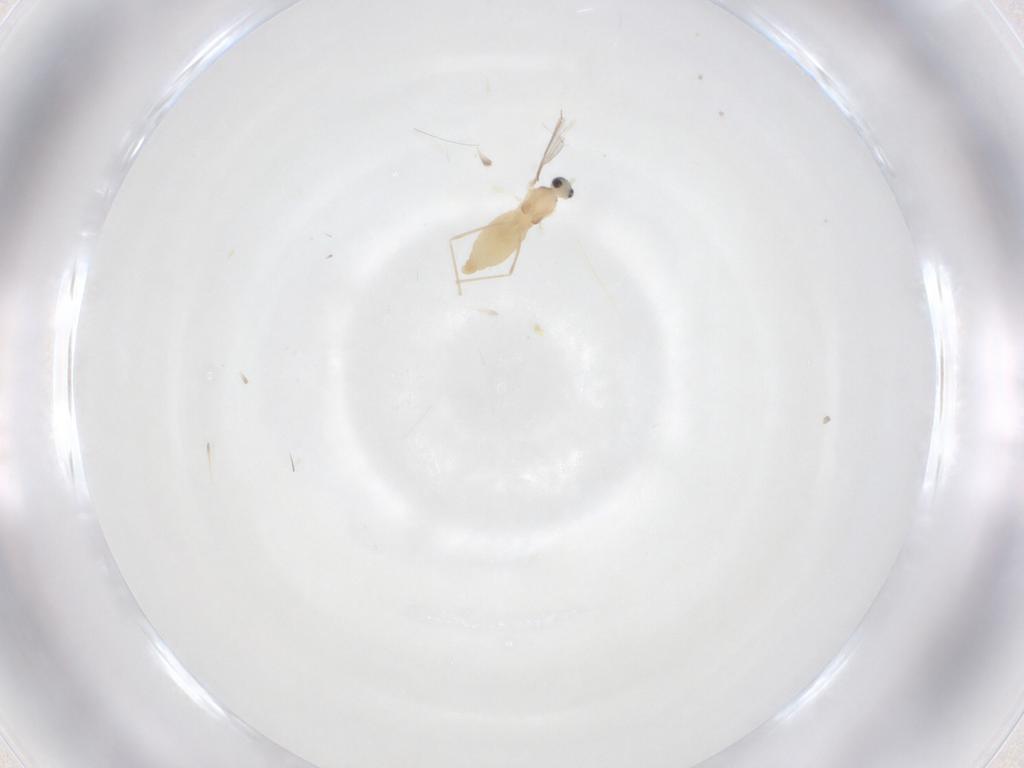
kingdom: Animalia
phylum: Arthropoda
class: Insecta
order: Diptera
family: Cecidomyiidae
